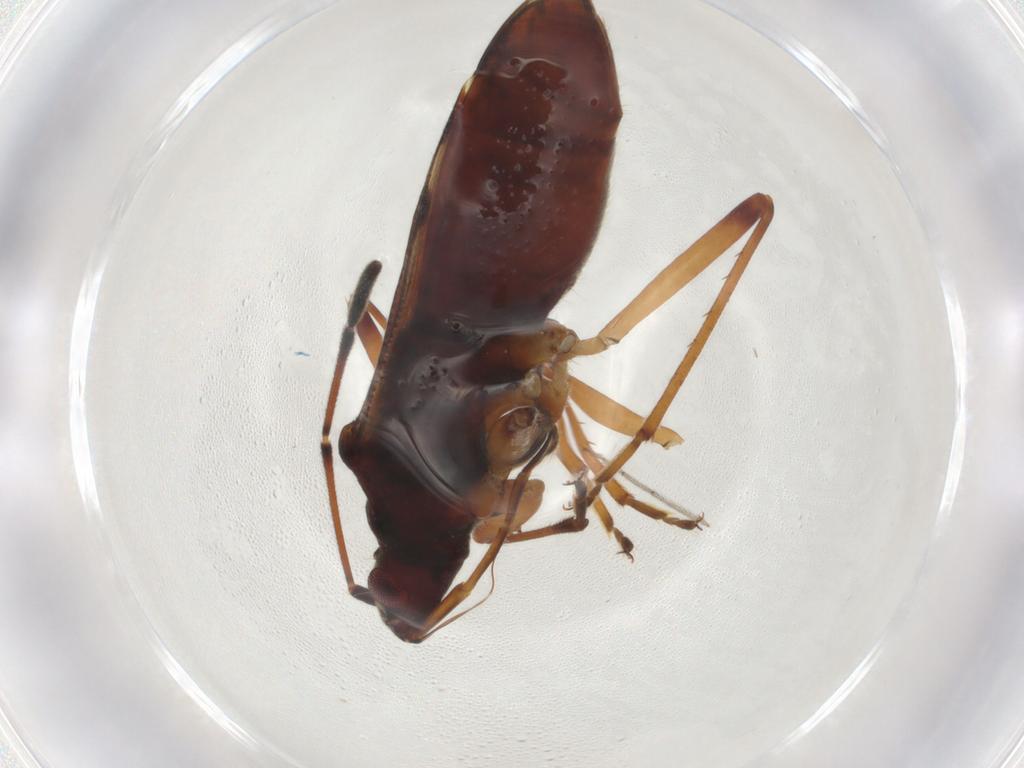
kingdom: Animalia
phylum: Arthropoda
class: Insecta
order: Hemiptera
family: Rhyparochromidae
